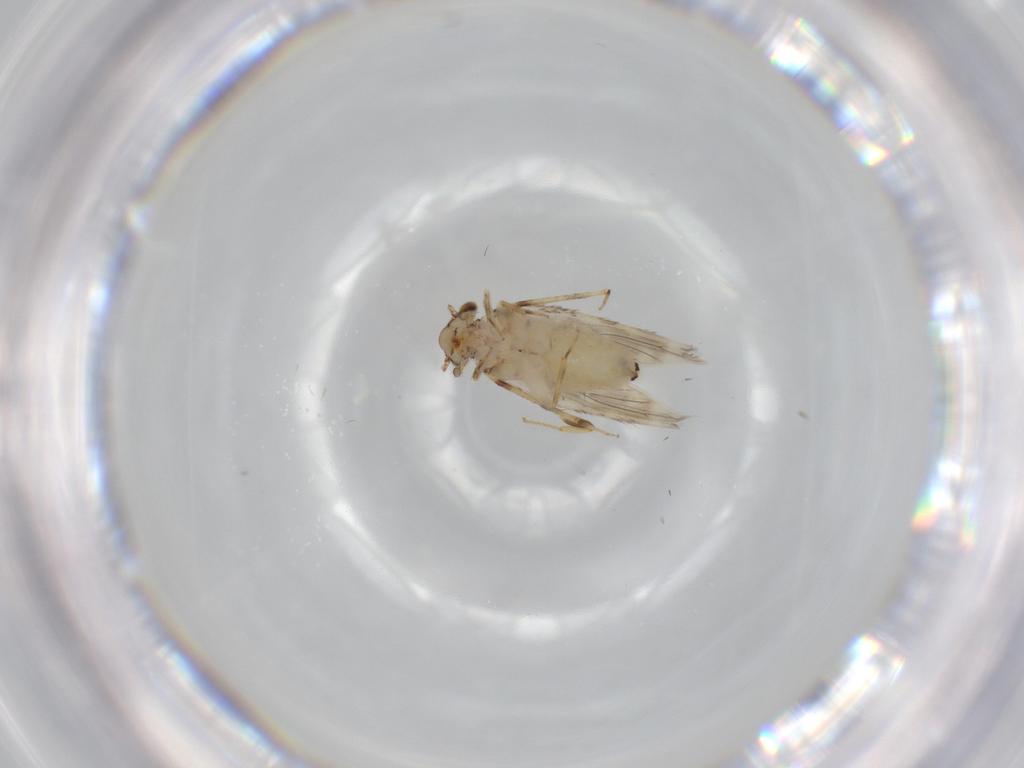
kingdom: Animalia
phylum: Arthropoda
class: Insecta
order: Psocodea
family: Lepidopsocidae
